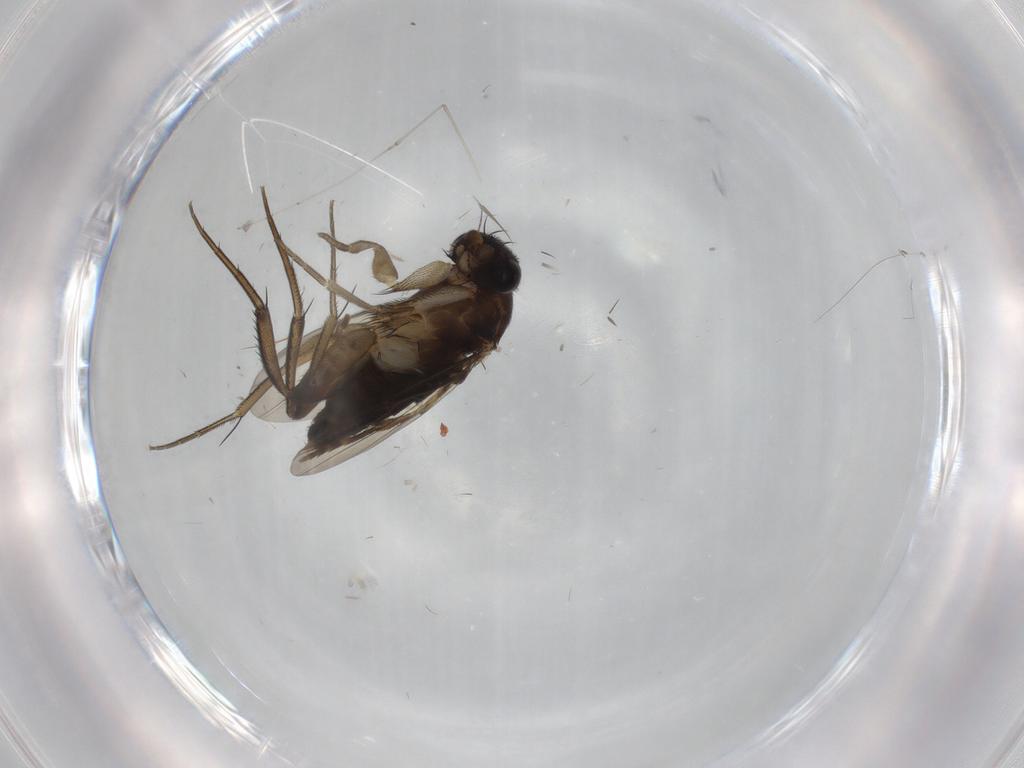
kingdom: Animalia
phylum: Arthropoda
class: Insecta
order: Diptera
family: Phoridae
